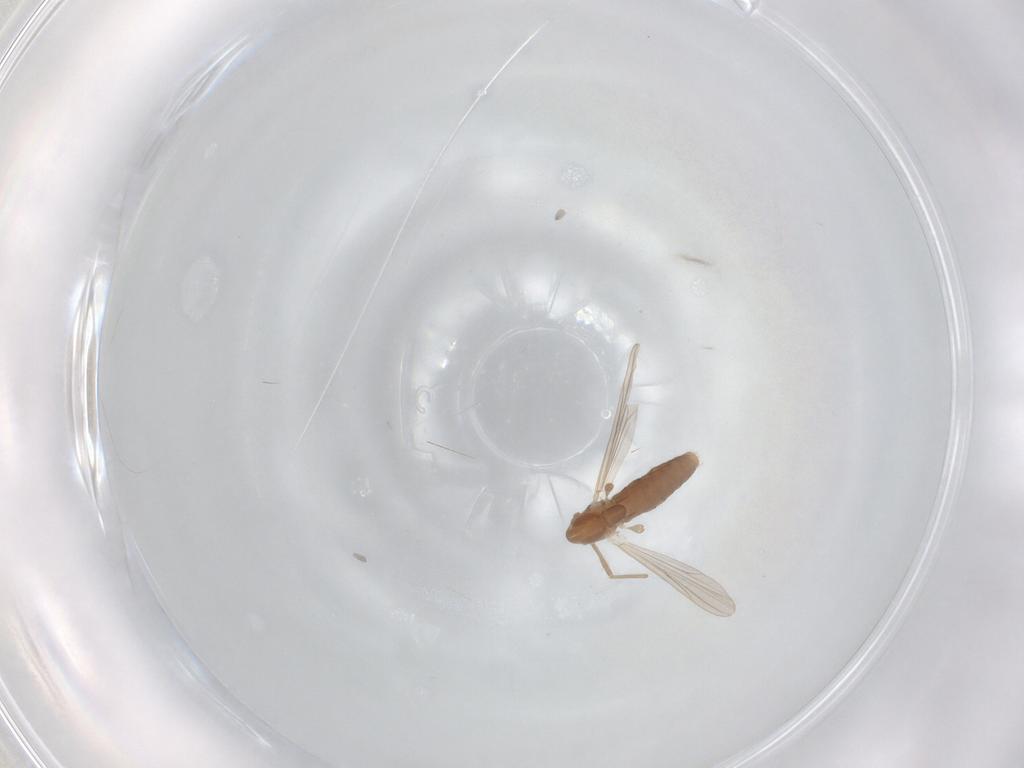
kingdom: Animalia
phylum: Arthropoda
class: Insecta
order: Diptera
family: Chironomidae
